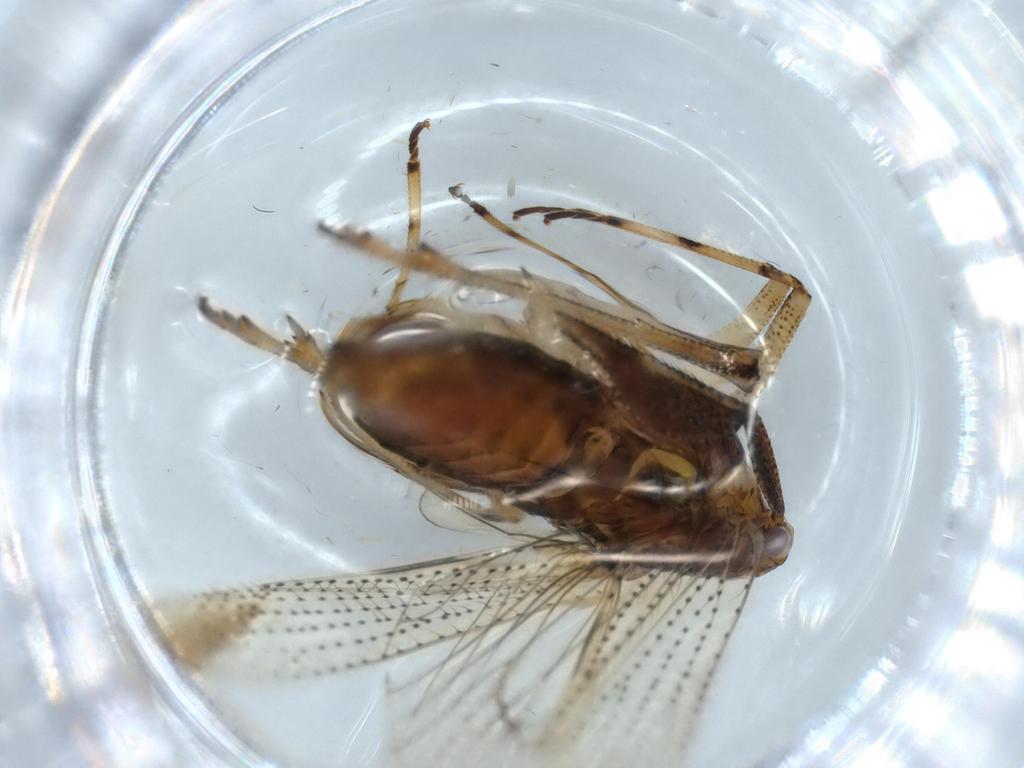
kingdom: Animalia
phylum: Arthropoda
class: Insecta
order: Hemiptera
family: Delphacidae
